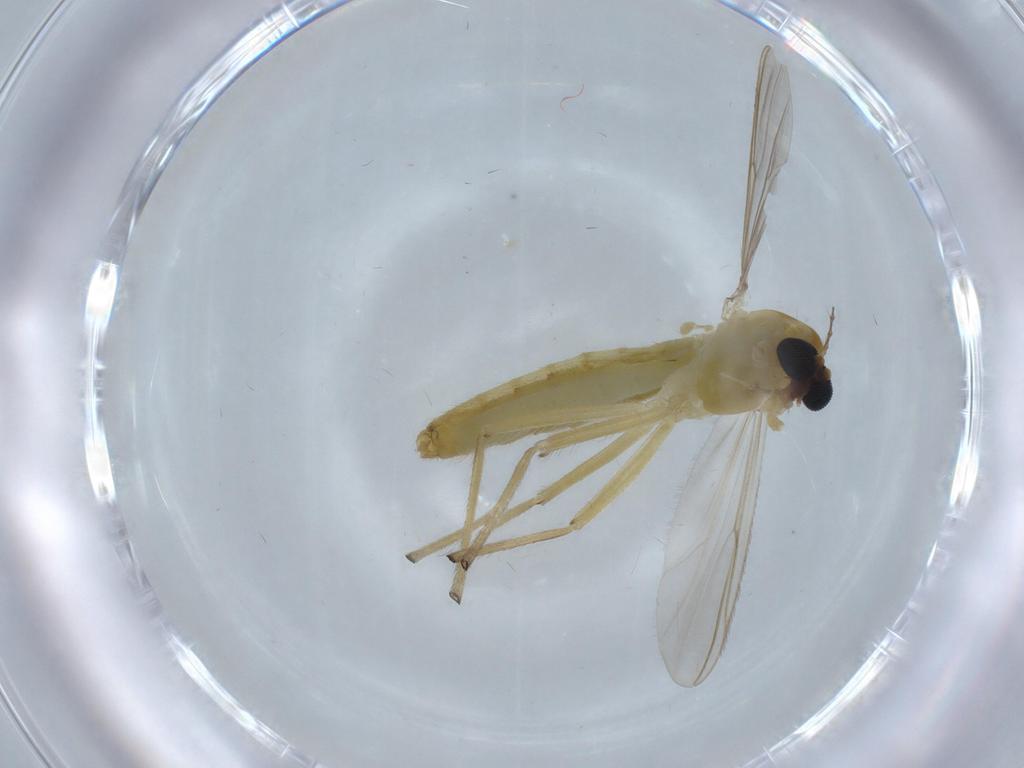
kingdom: Animalia
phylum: Arthropoda
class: Insecta
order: Diptera
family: Chironomidae
